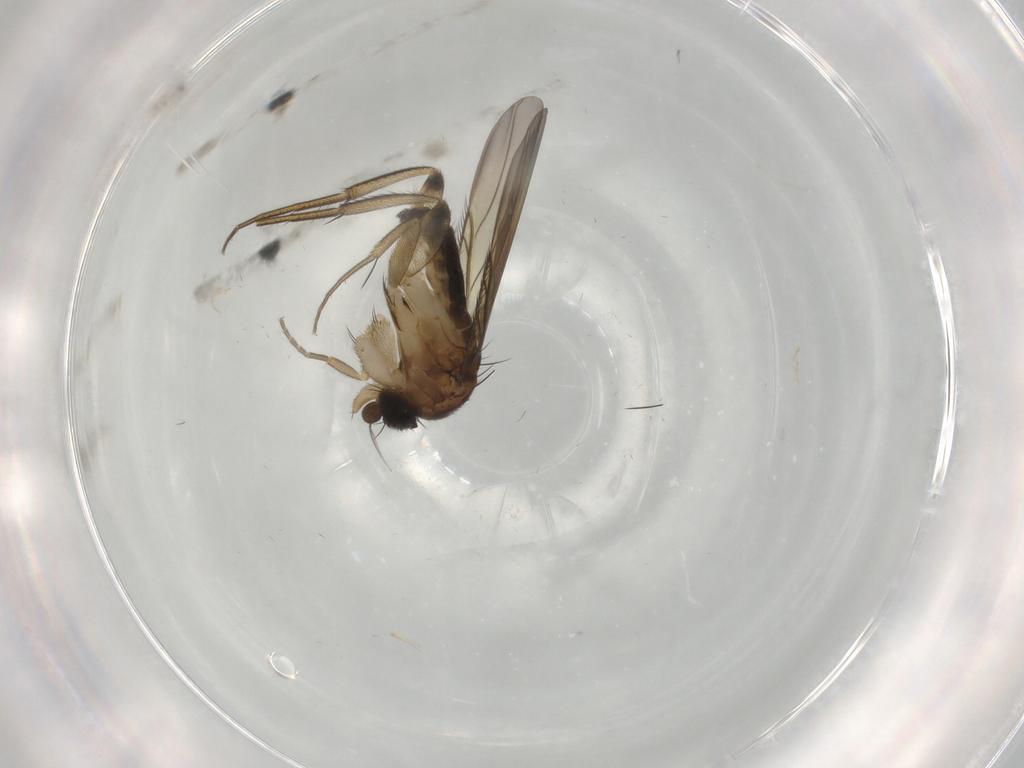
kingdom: Animalia
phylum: Arthropoda
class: Insecta
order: Diptera
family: Phoridae
